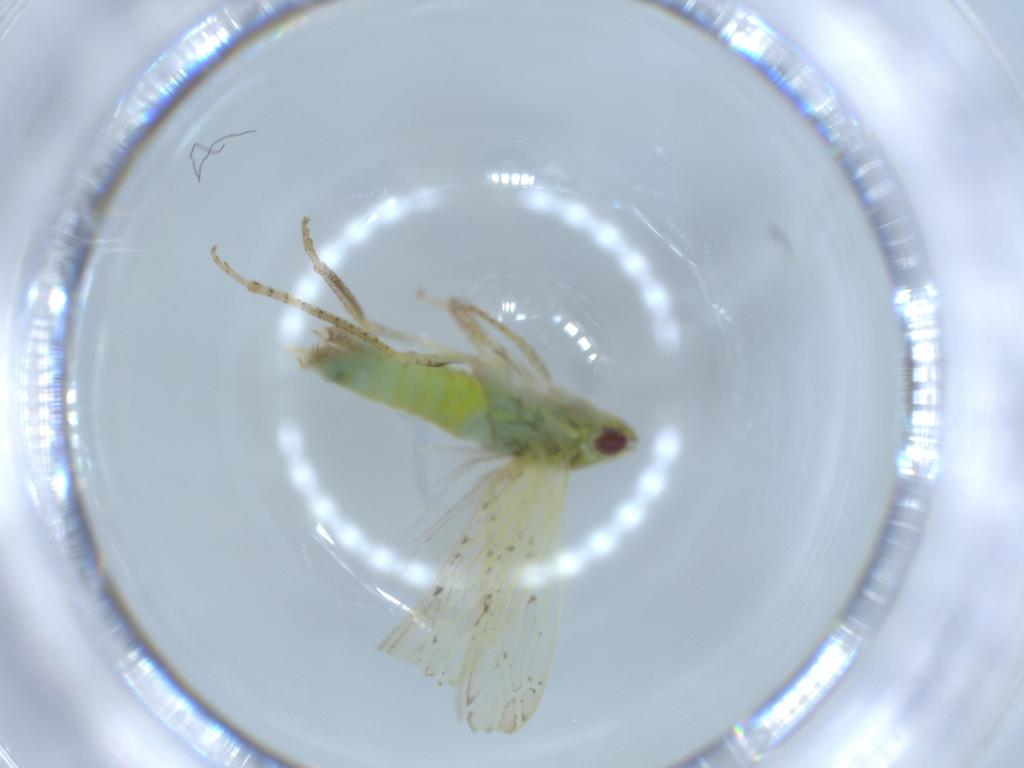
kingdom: Animalia
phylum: Arthropoda
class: Insecta
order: Hemiptera
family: Cicadellidae
